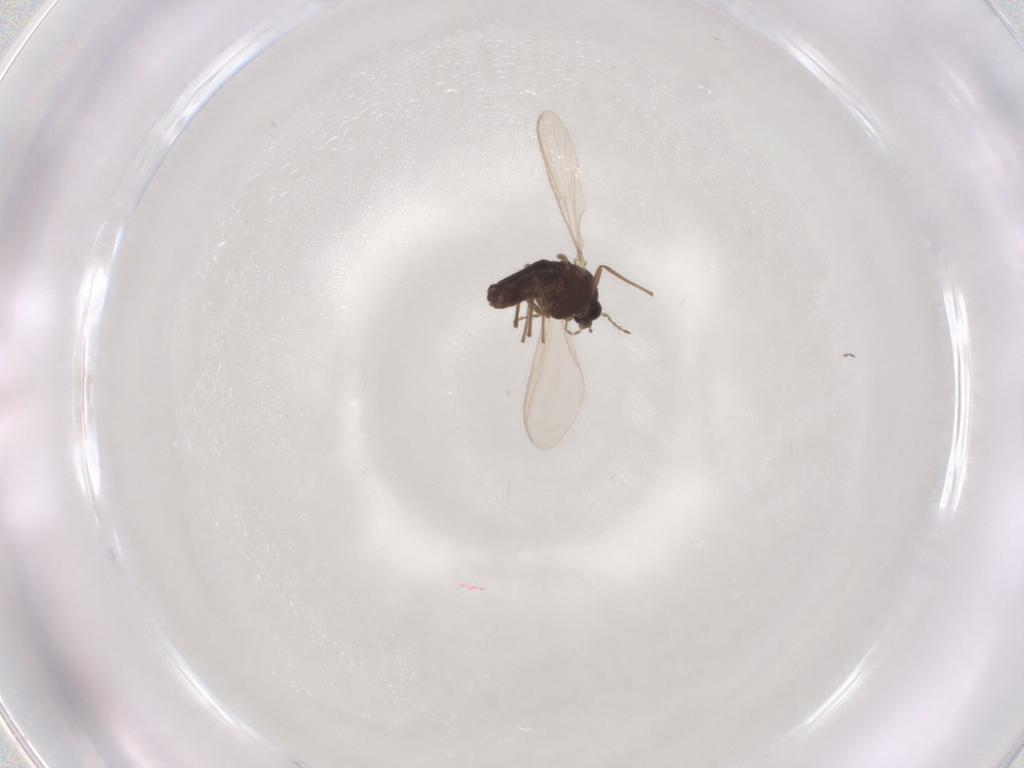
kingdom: Animalia
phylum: Arthropoda
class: Insecta
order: Diptera
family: Chironomidae
